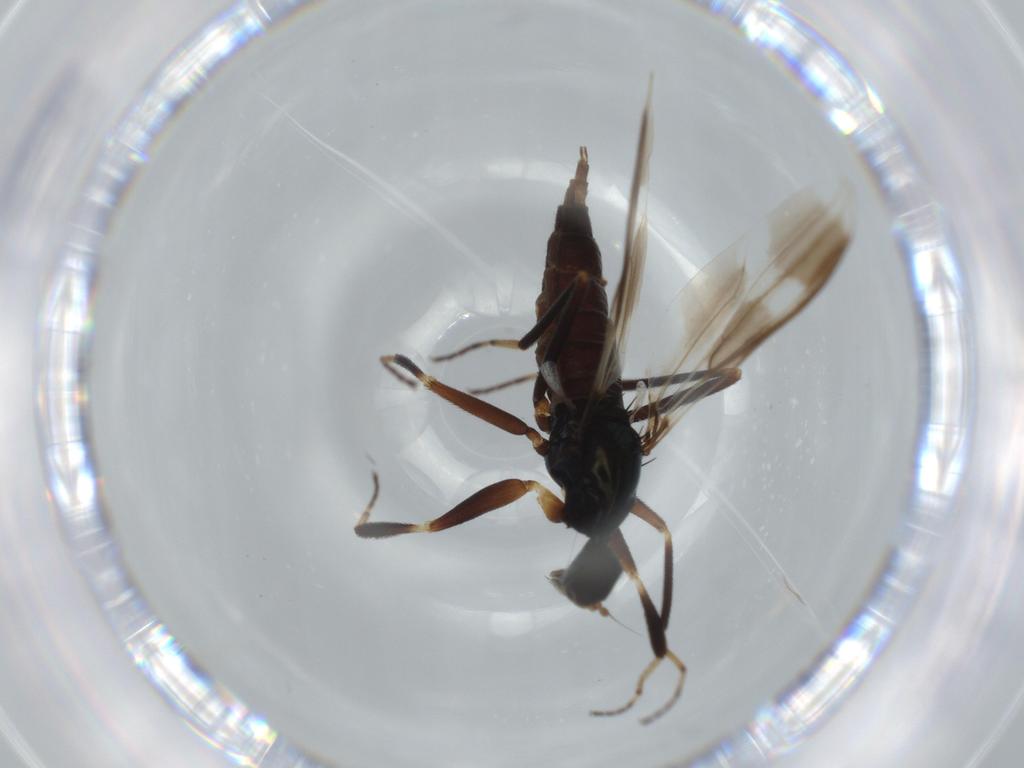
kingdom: Animalia
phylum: Arthropoda
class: Insecta
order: Diptera
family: Hybotidae
